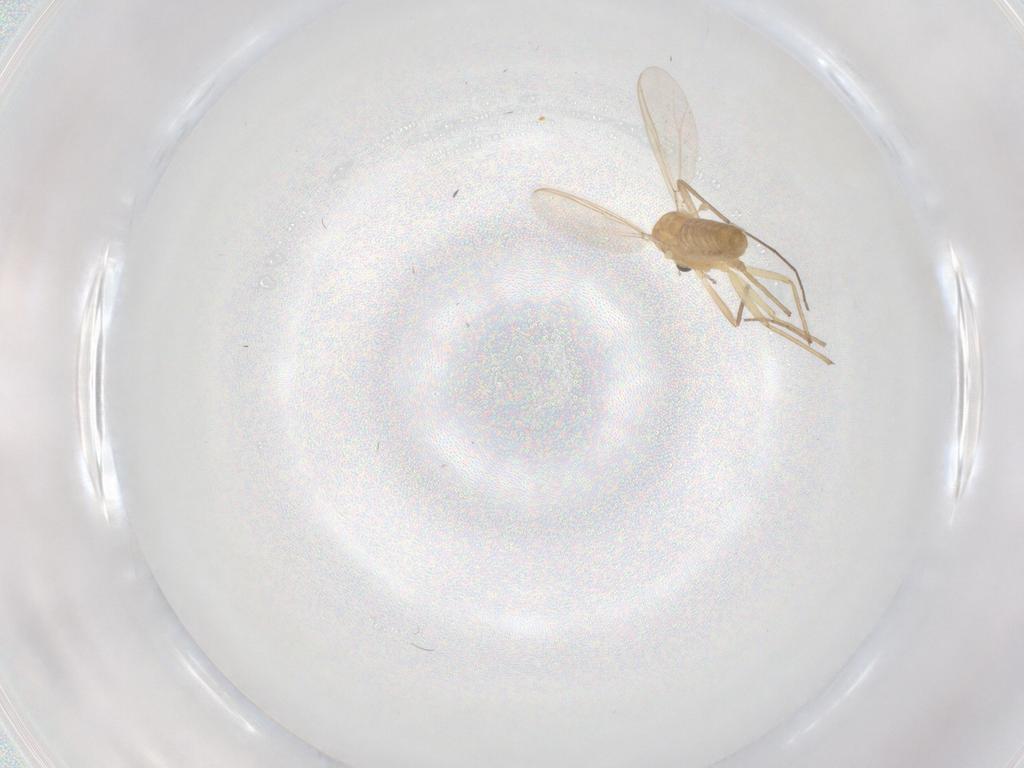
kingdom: Animalia
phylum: Arthropoda
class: Insecta
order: Diptera
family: Chironomidae
